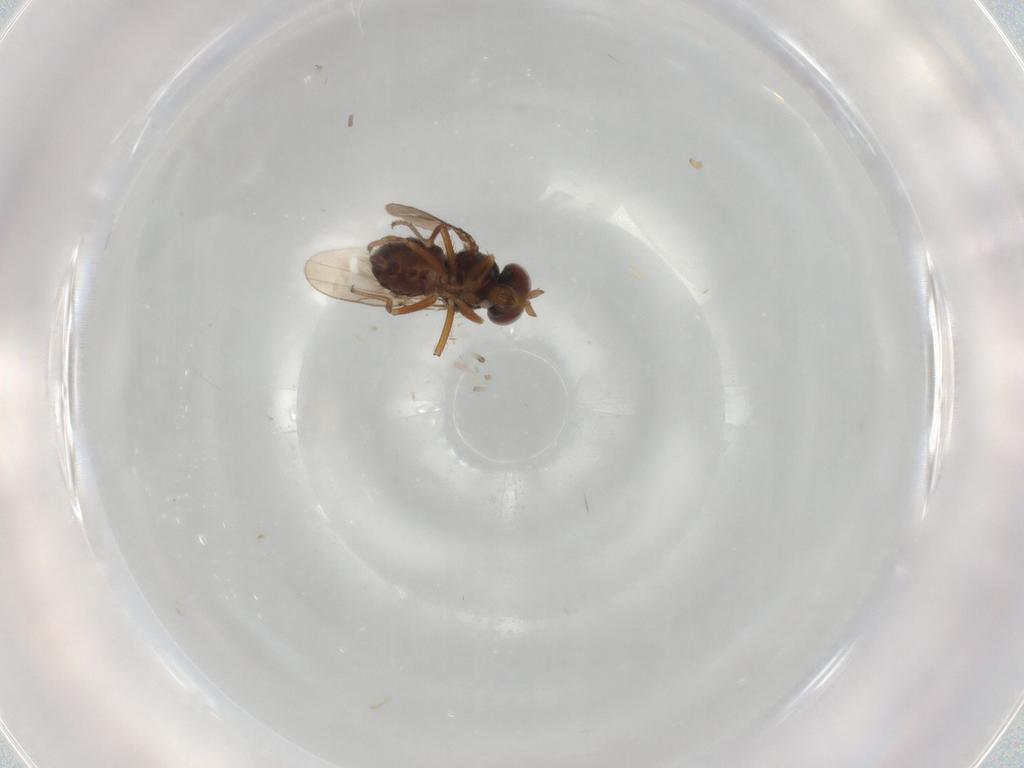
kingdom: Animalia
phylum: Arthropoda
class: Insecta
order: Diptera
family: Ephydridae
